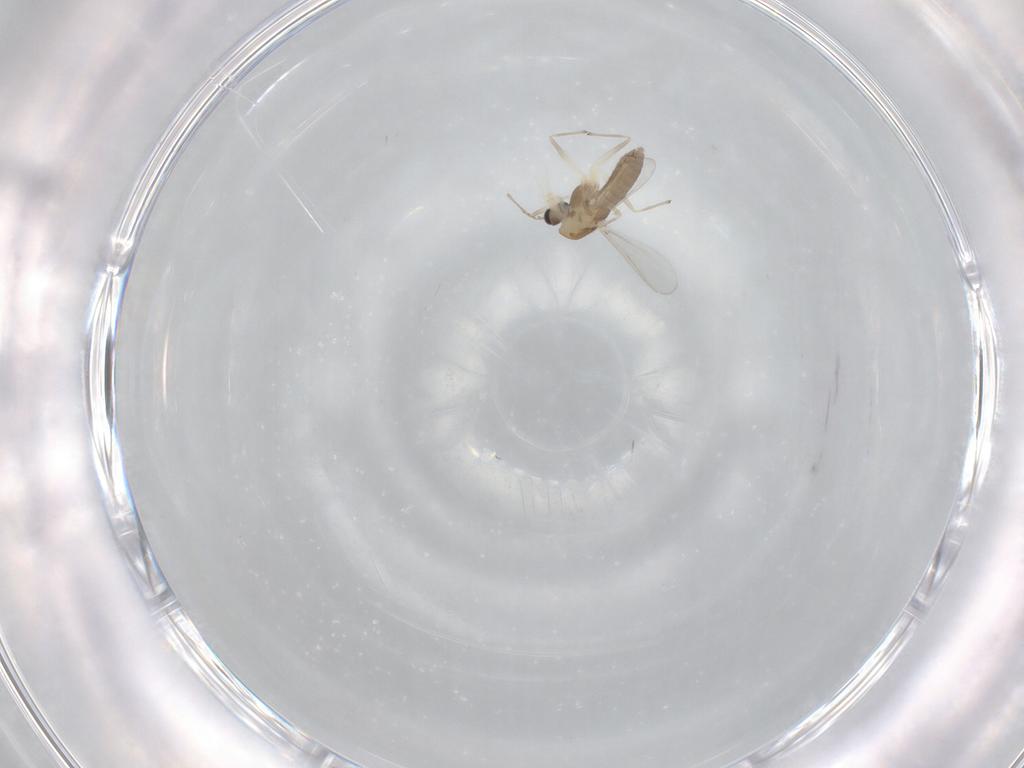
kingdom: Animalia
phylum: Arthropoda
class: Insecta
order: Diptera
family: Chironomidae
